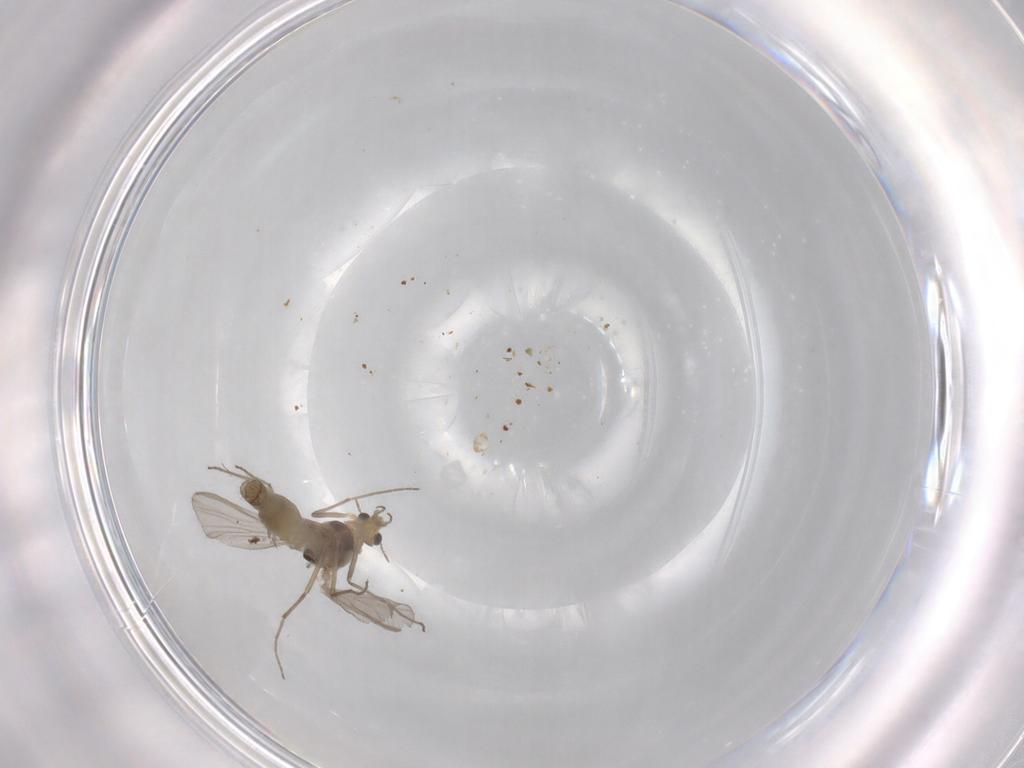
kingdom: Animalia
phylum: Arthropoda
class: Insecta
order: Diptera
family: Chironomidae
